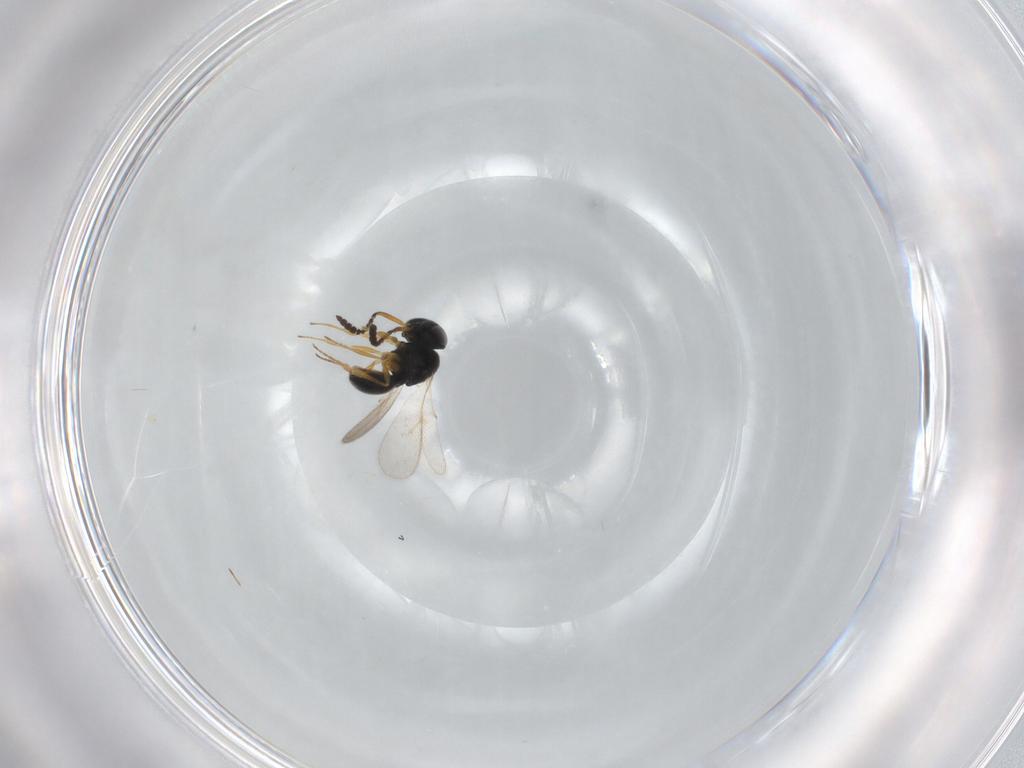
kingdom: Animalia
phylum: Arthropoda
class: Insecta
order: Hymenoptera
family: Scelionidae
